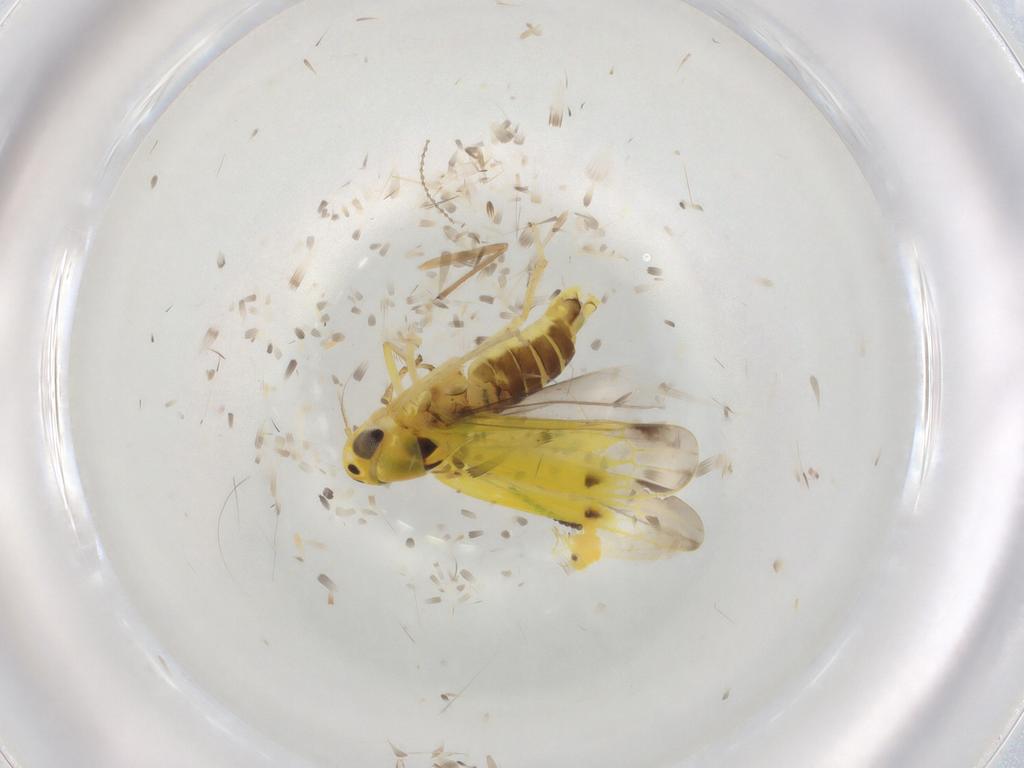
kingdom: Animalia
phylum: Arthropoda
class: Insecta
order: Hemiptera
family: Cicadellidae
